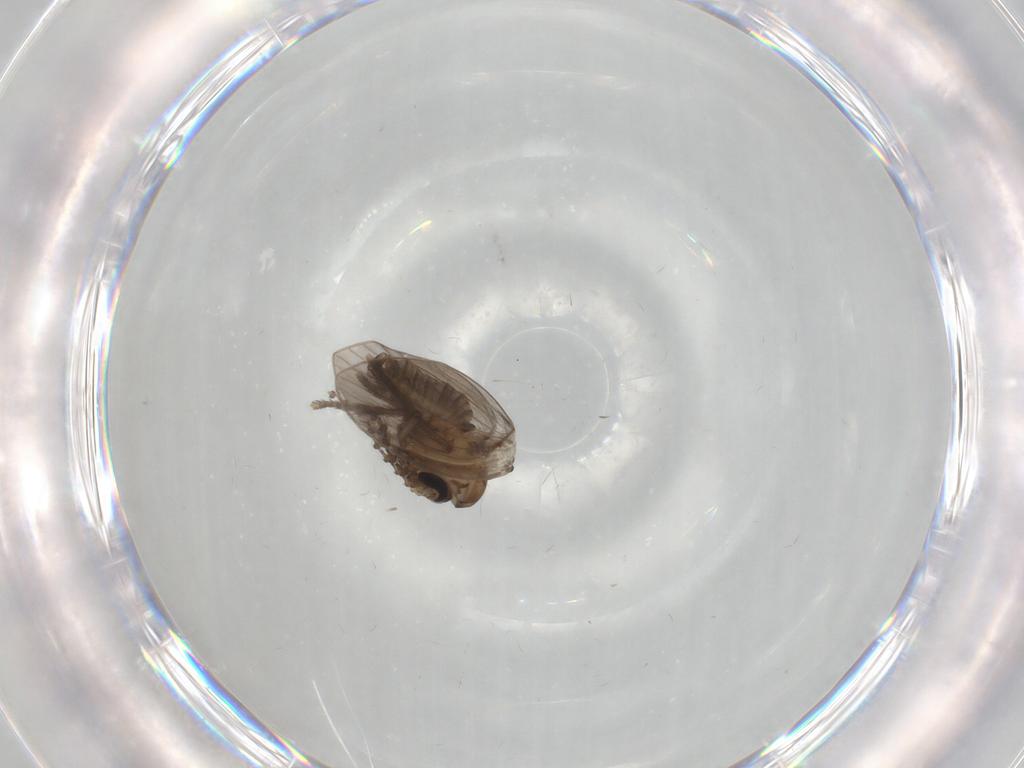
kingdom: Animalia
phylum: Arthropoda
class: Insecta
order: Diptera
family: Psychodidae
